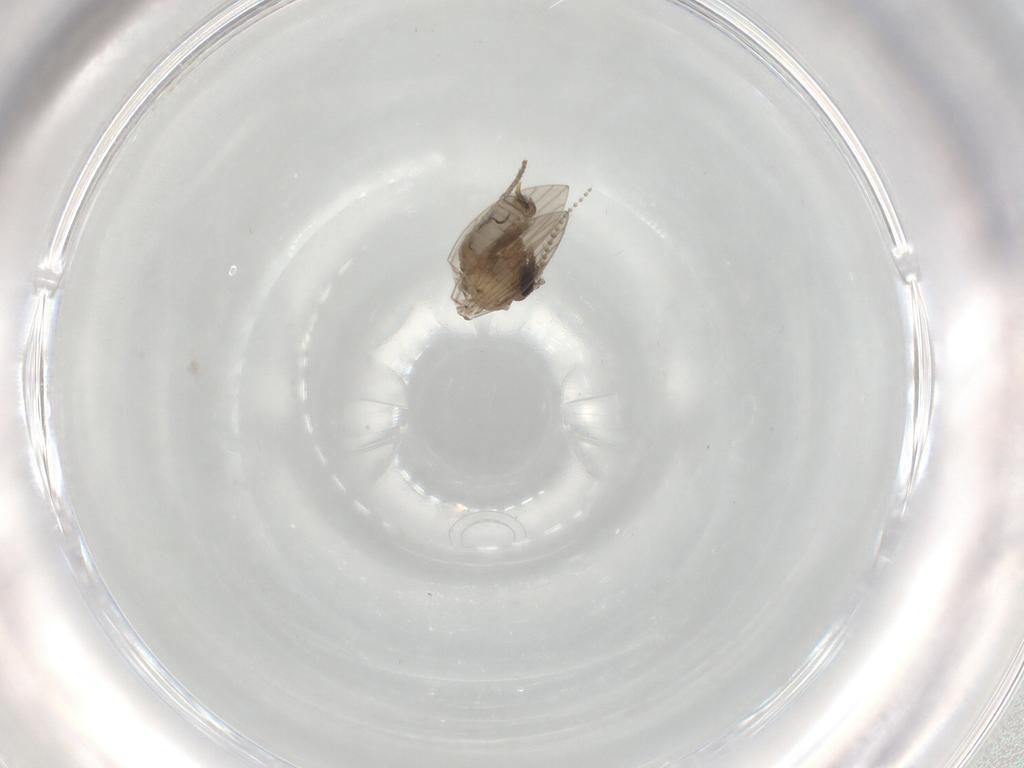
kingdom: Animalia
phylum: Arthropoda
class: Insecta
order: Diptera
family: Psychodidae
